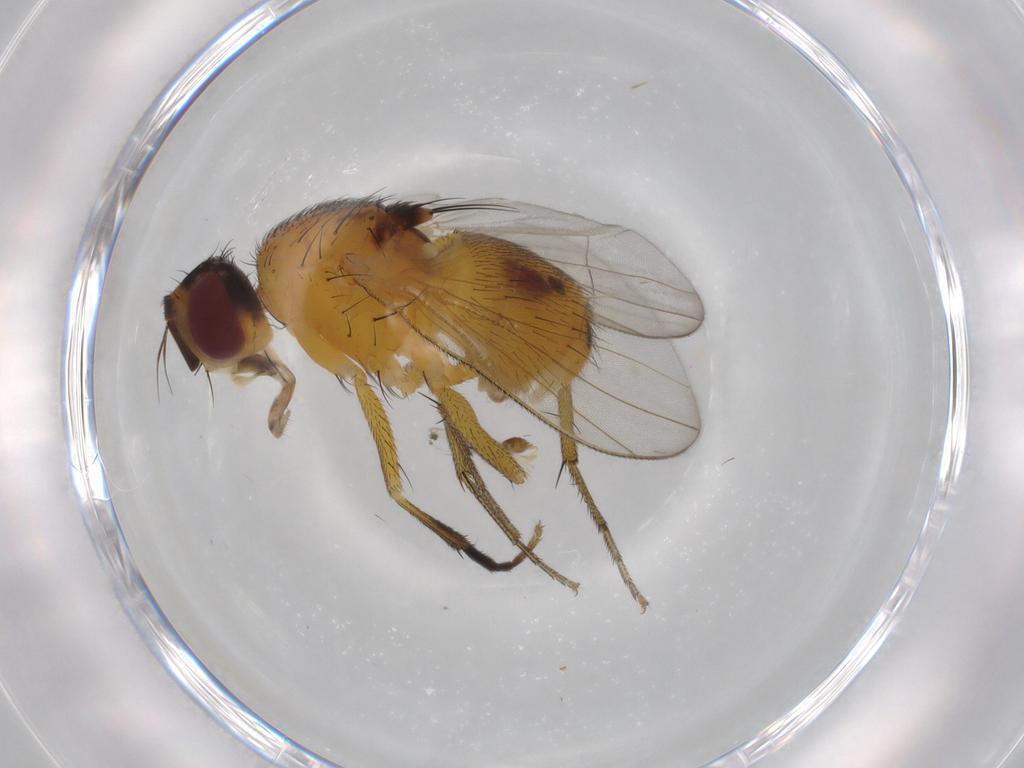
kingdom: Animalia
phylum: Arthropoda
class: Insecta
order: Diptera
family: Muscidae
